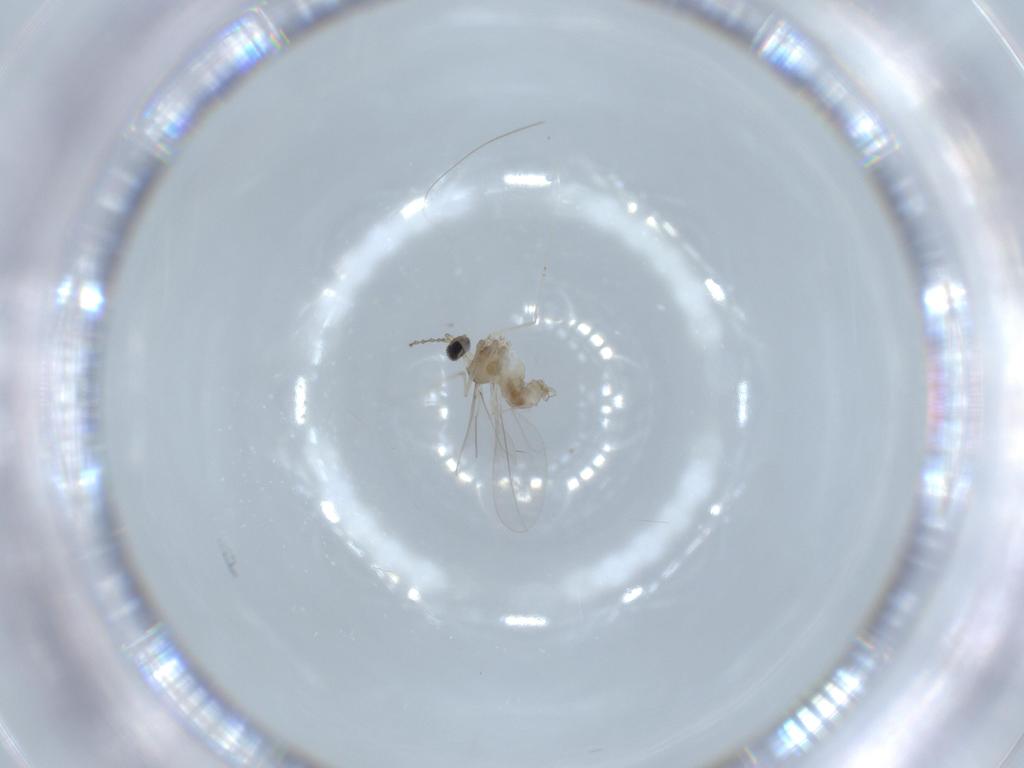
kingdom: Animalia
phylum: Arthropoda
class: Insecta
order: Diptera
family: Cecidomyiidae
